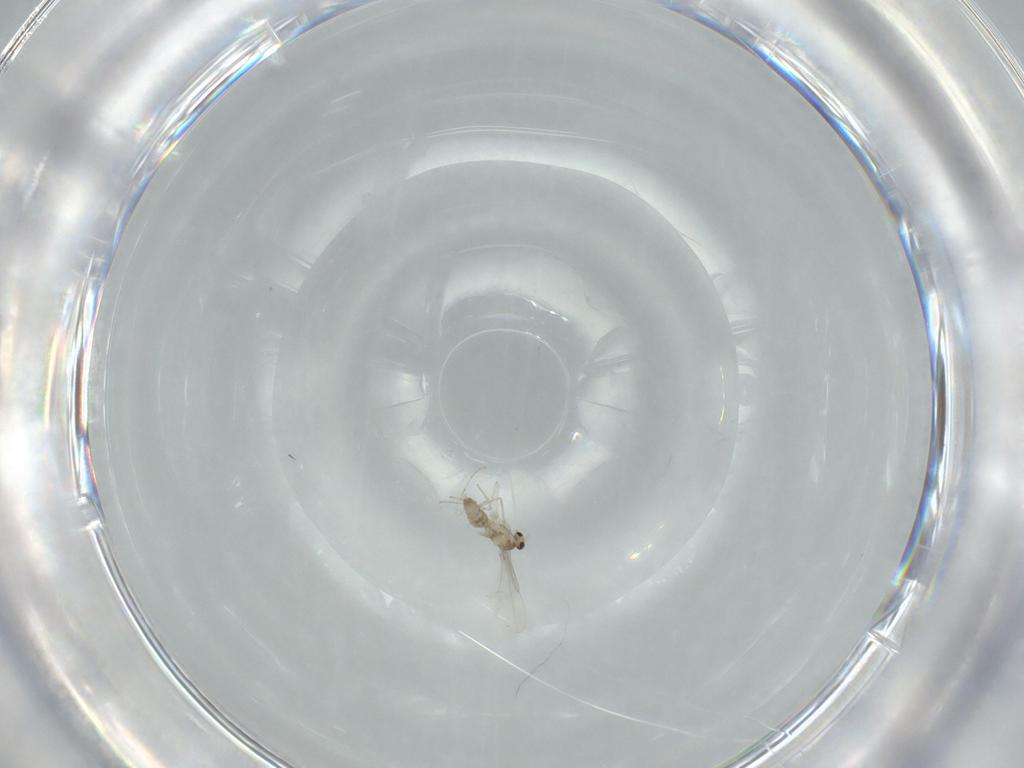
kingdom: Animalia
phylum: Arthropoda
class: Insecta
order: Diptera
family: Cecidomyiidae
